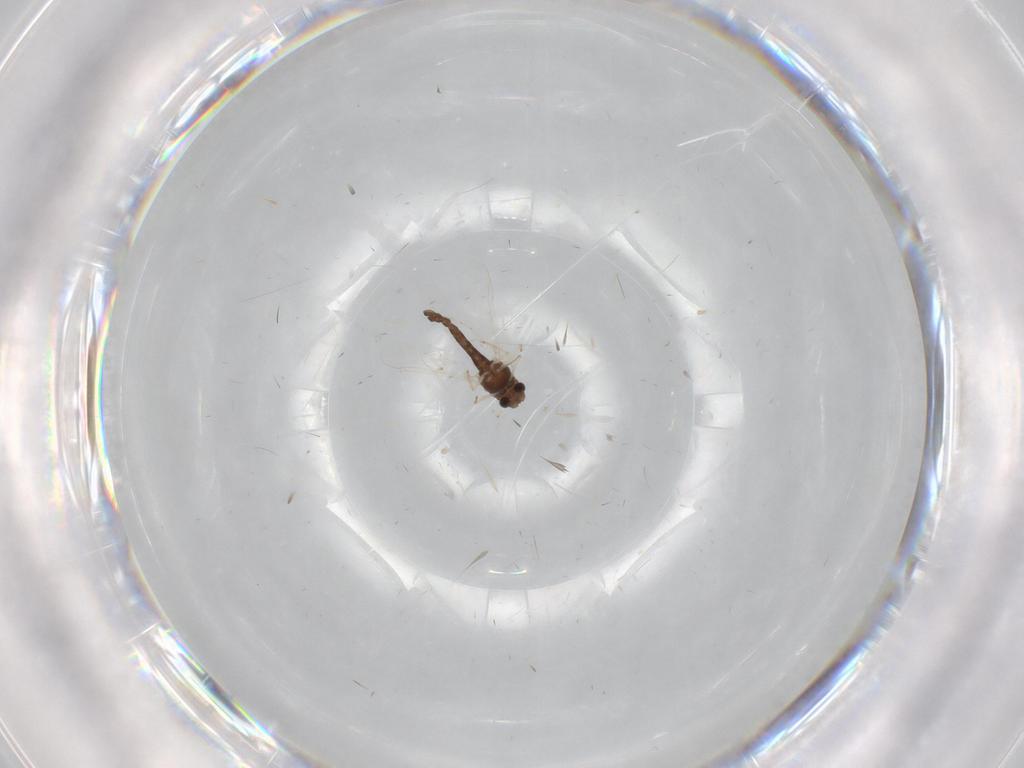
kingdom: Animalia
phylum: Arthropoda
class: Insecta
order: Diptera
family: Chironomidae
